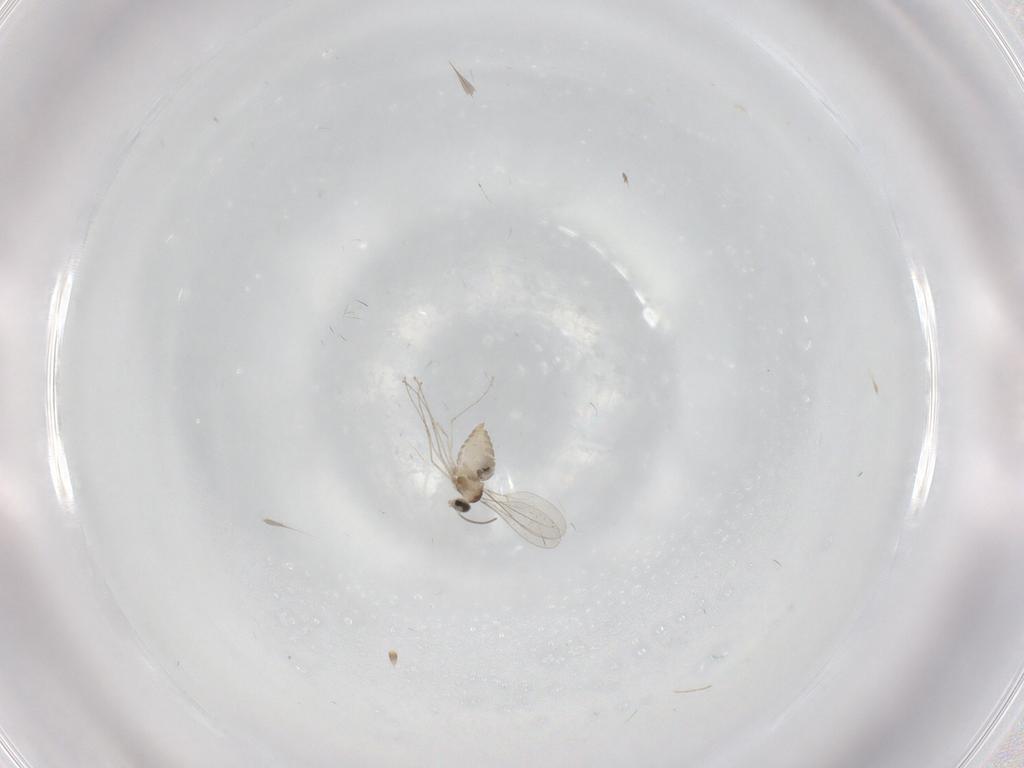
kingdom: Animalia
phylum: Arthropoda
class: Insecta
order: Diptera
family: Cecidomyiidae
